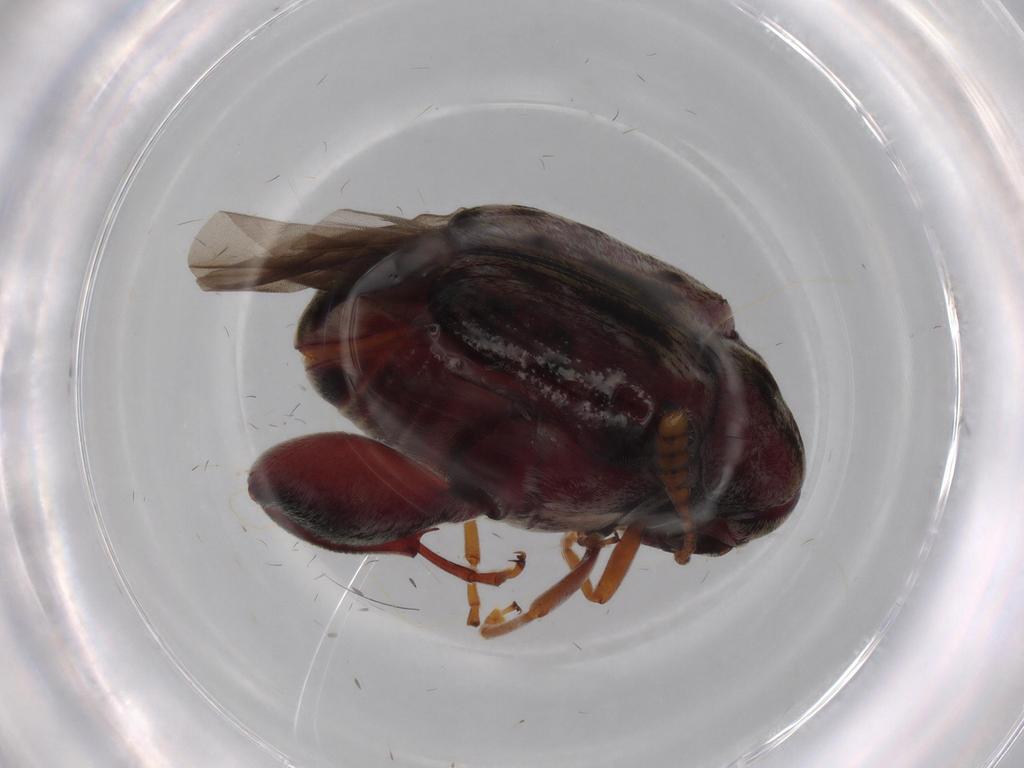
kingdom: Animalia
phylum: Arthropoda
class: Insecta
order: Coleoptera
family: Chrysomelidae
